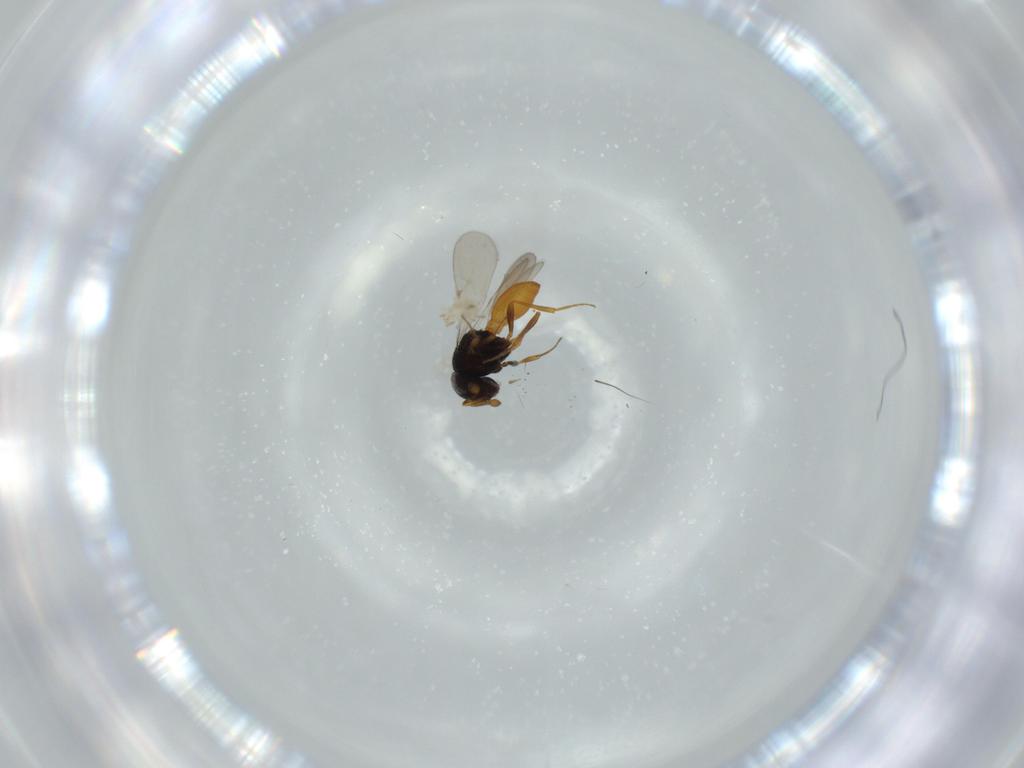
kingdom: Animalia
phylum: Arthropoda
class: Insecta
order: Hymenoptera
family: Scelionidae
